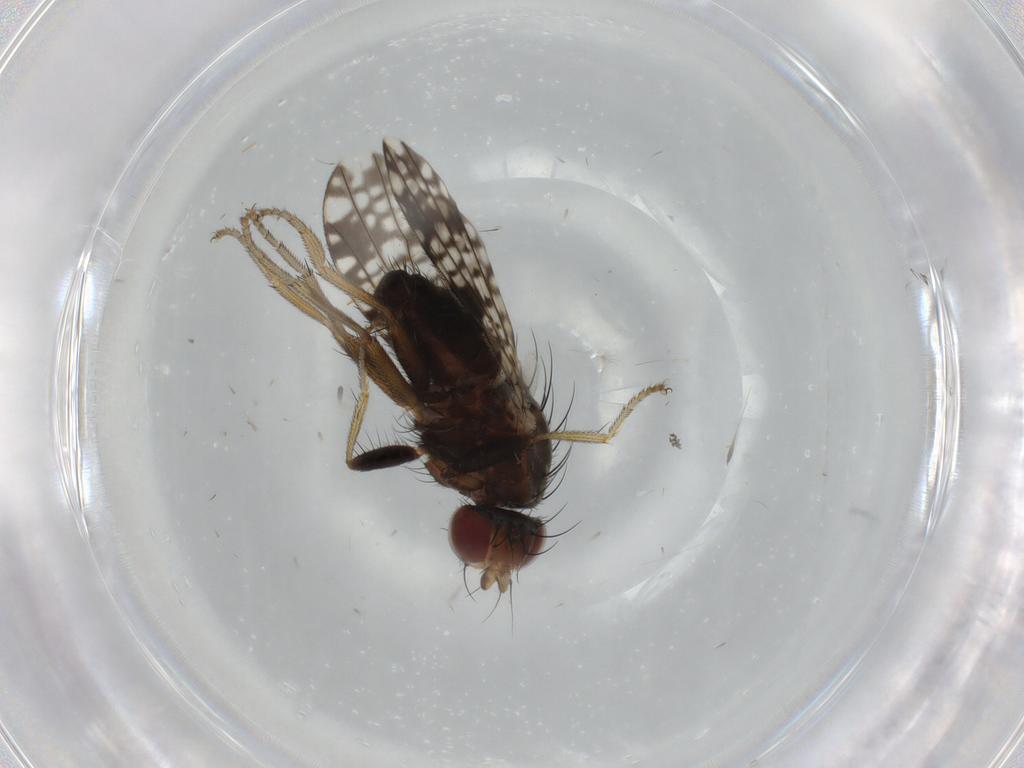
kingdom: Animalia
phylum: Arthropoda
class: Insecta
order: Diptera
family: Tephritidae
